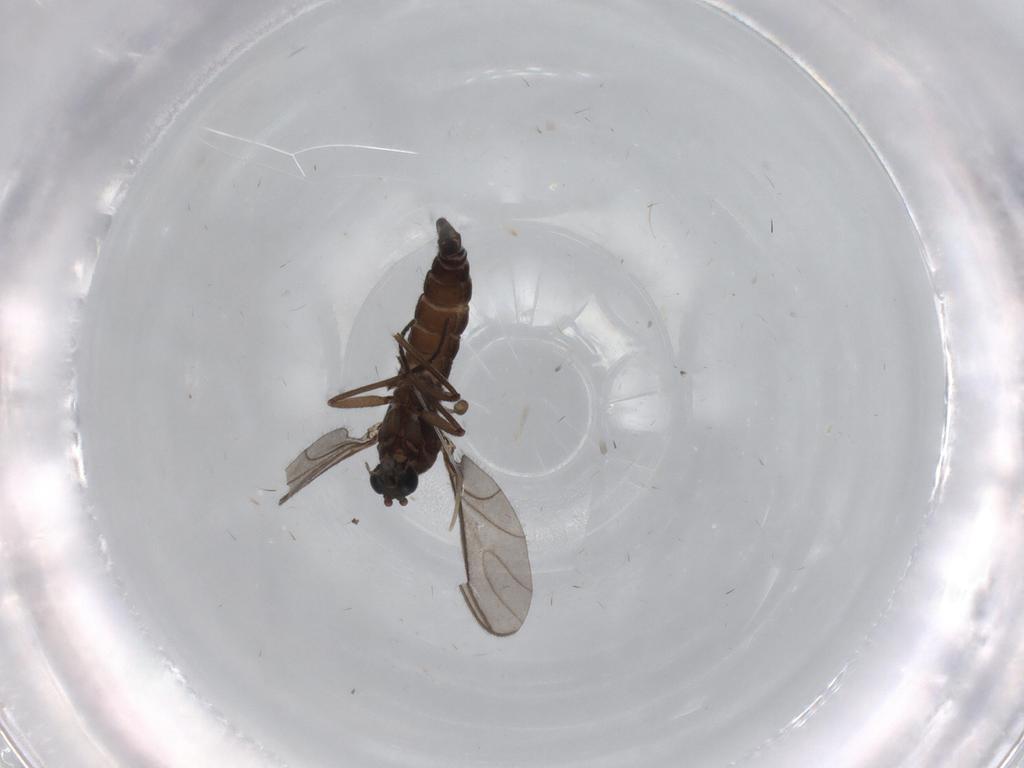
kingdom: Animalia
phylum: Arthropoda
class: Insecta
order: Diptera
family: Sciaridae
